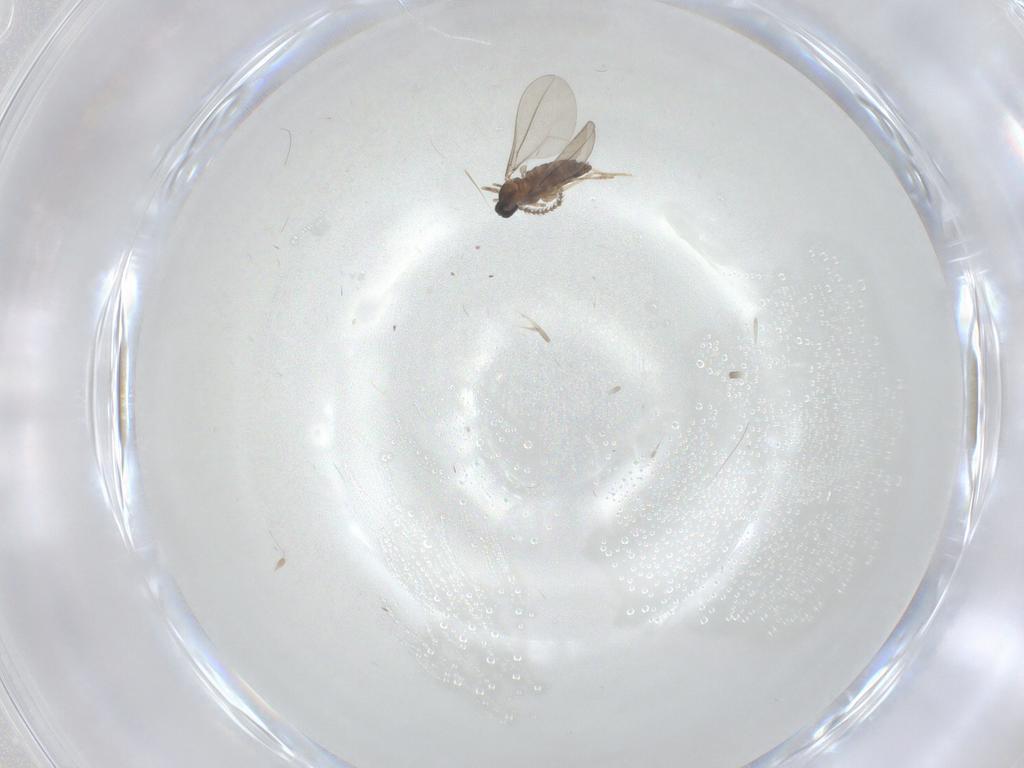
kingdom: Animalia
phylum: Arthropoda
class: Insecta
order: Diptera
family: Cecidomyiidae
